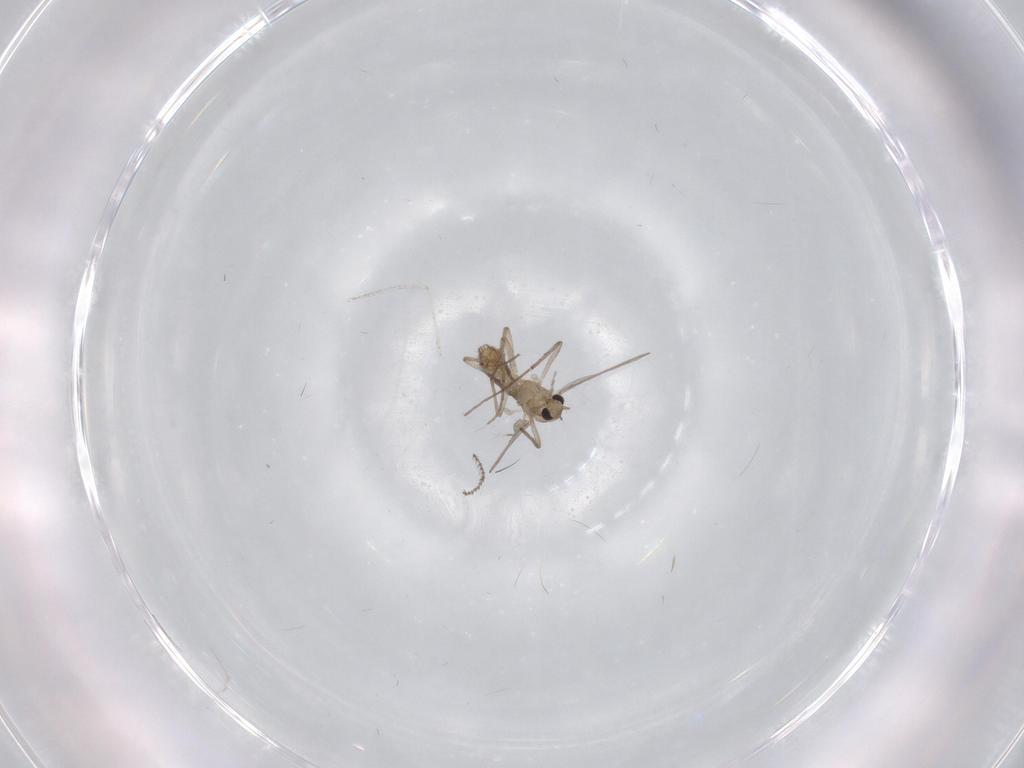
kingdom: Animalia
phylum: Arthropoda
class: Insecta
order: Diptera
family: Chironomidae
